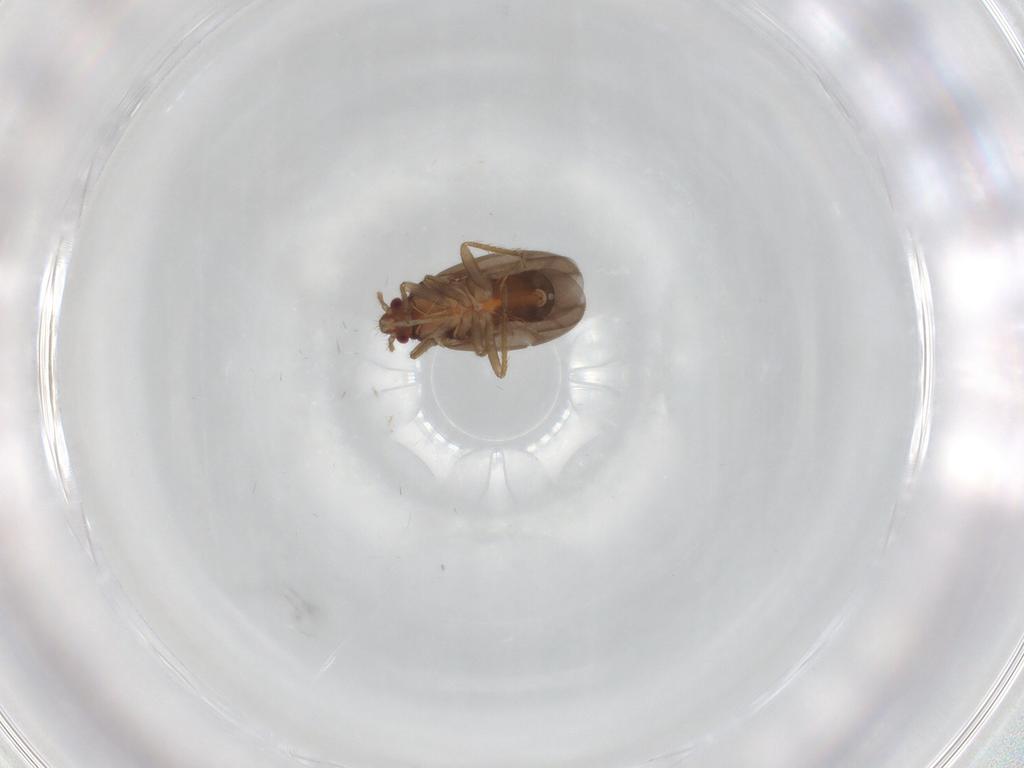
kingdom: Animalia
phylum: Arthropoda
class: Insecta
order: Hemiptera
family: Ceratocombidae
